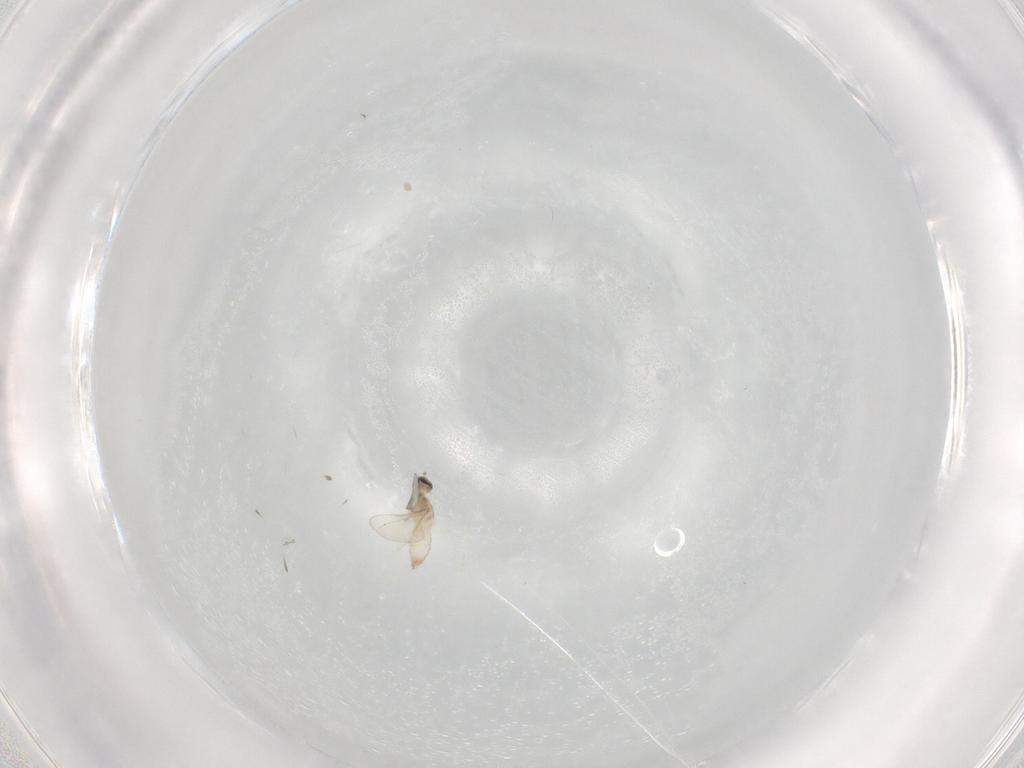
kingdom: Animalia
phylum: Arthropoda
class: Insecta
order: Diptera
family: Cecidomyiidae
